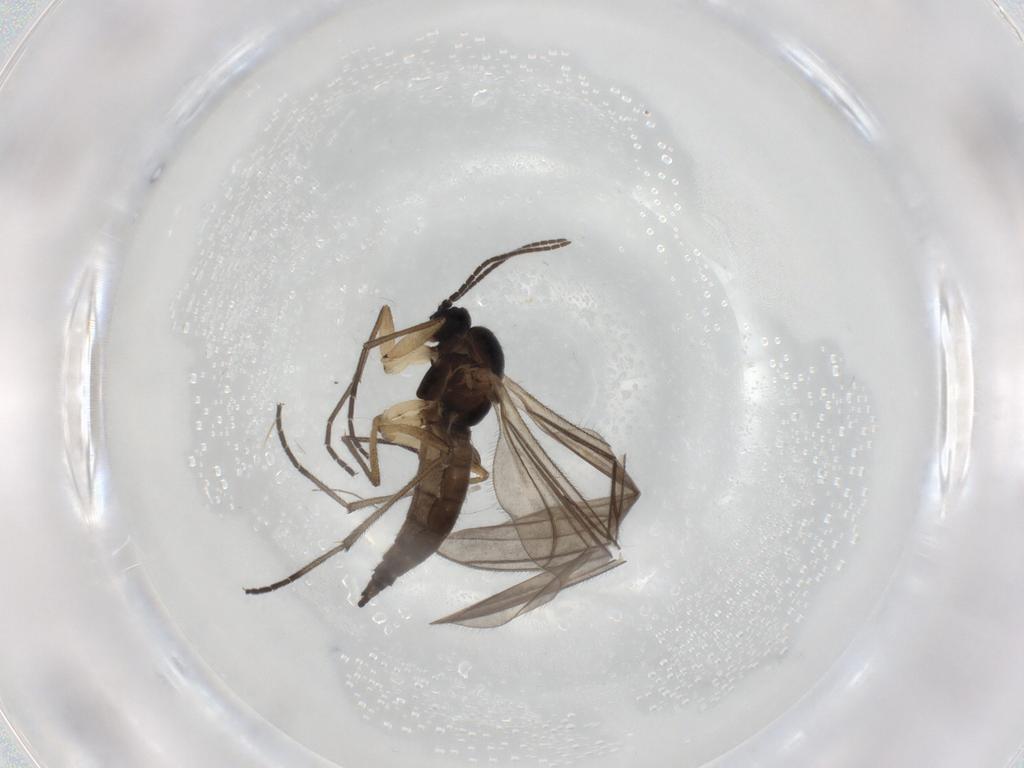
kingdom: Animalia
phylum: Arthropoda
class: Insecta
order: Diptera
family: Sciaridae
